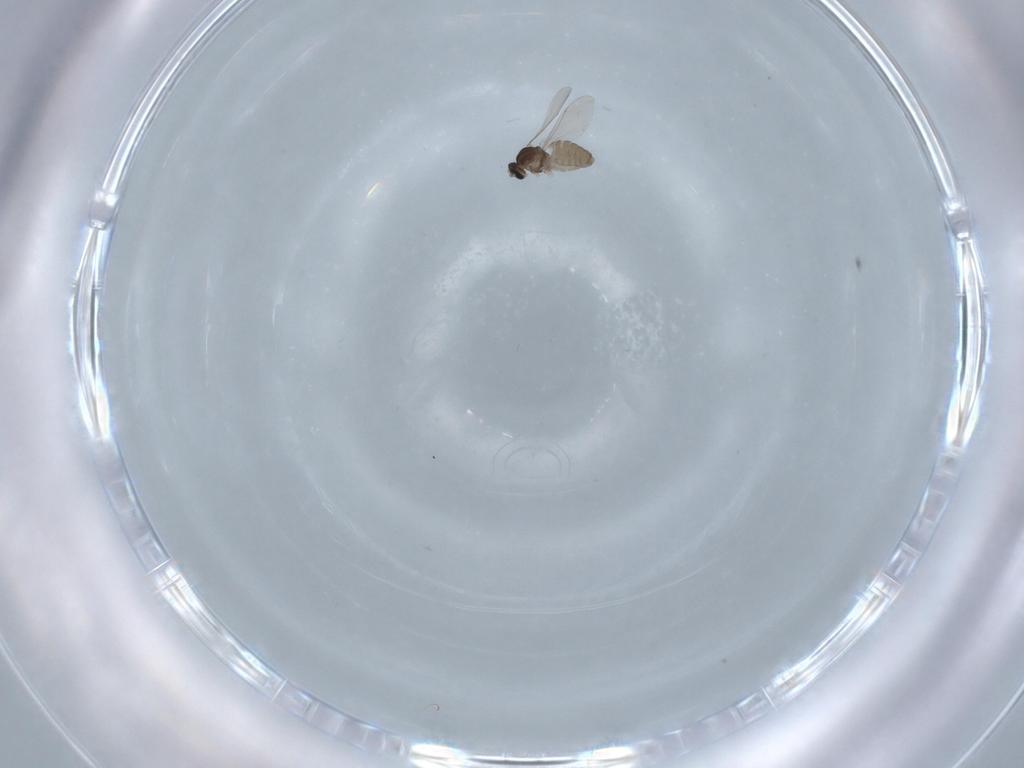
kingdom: Animalia
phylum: Arthropoda
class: Insecta
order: Diptera
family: Cecidomyiidae
